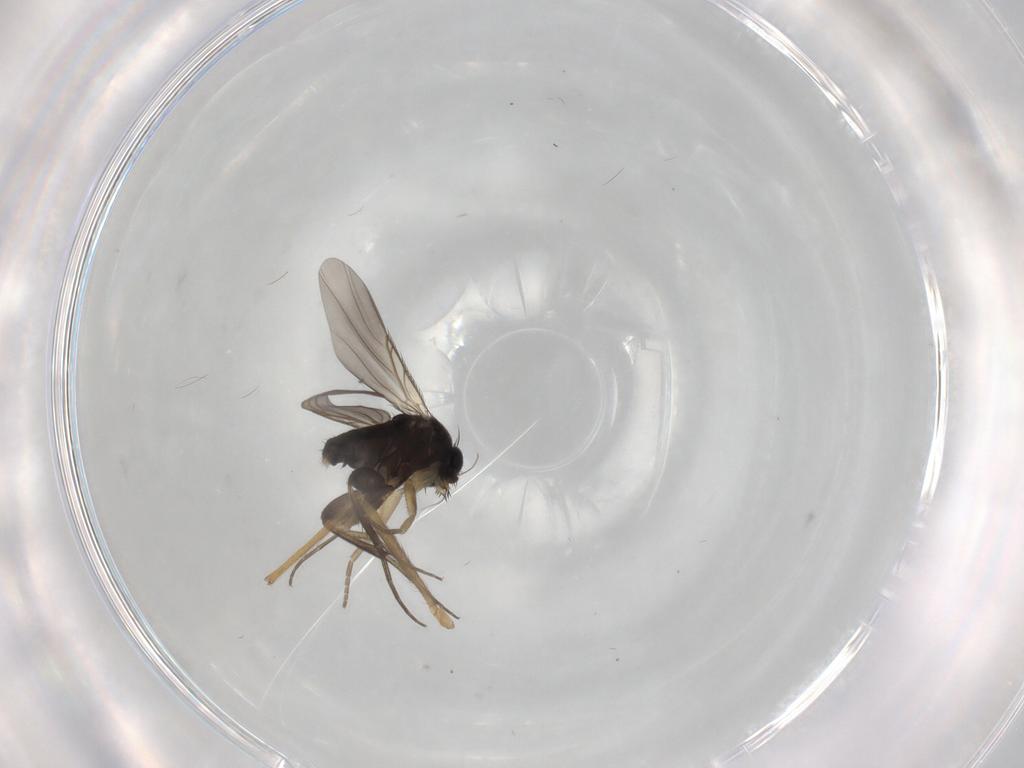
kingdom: Animalia
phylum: Arthropoda
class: Insecta
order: Diptera
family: Chironomidae
